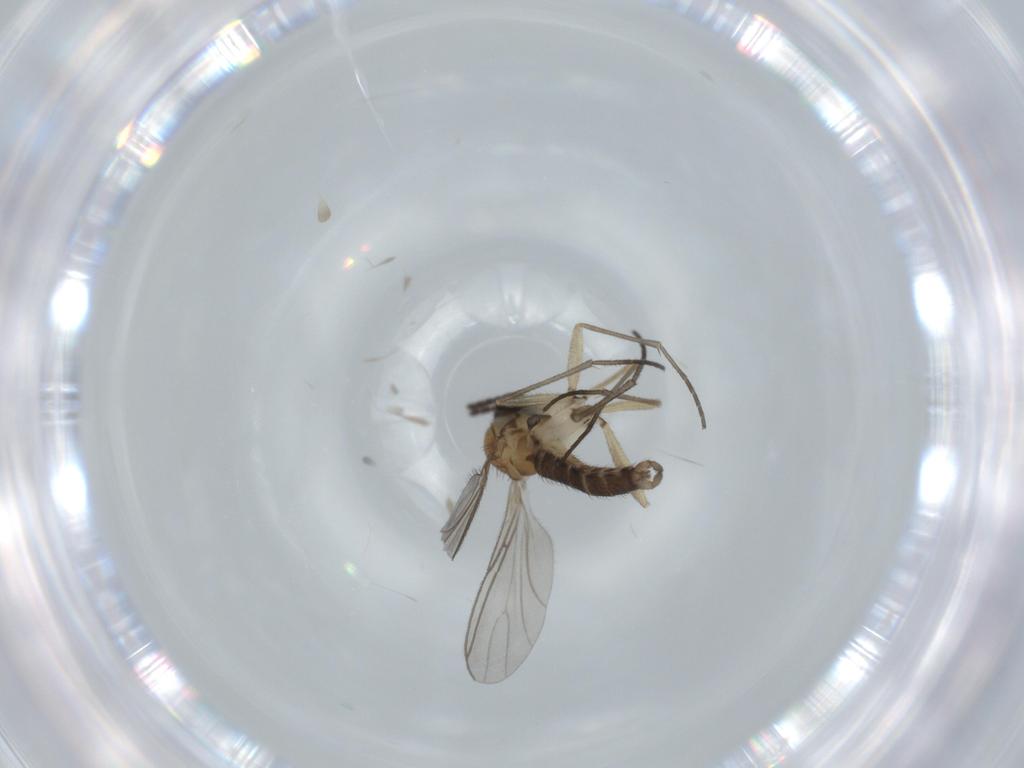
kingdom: Animalia
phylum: Arthropoda
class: Insecta
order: Diptera
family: Sciaridae
